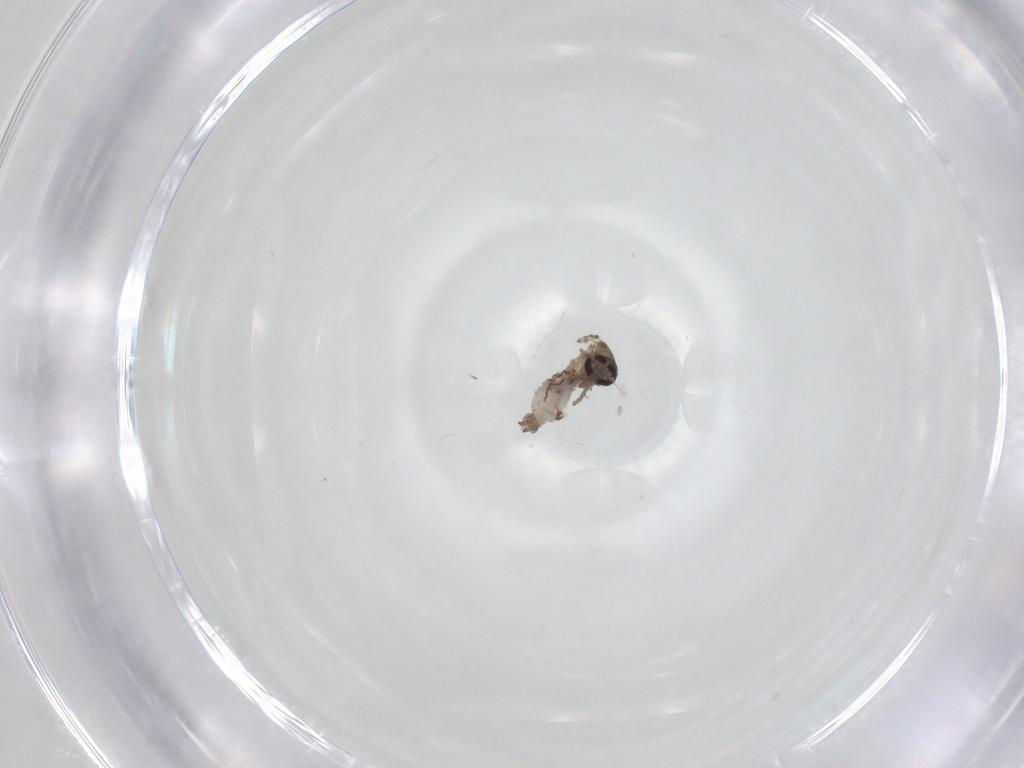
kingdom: Animalia
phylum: Arthropoda
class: Insecta
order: Diptera
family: Psychodidae
